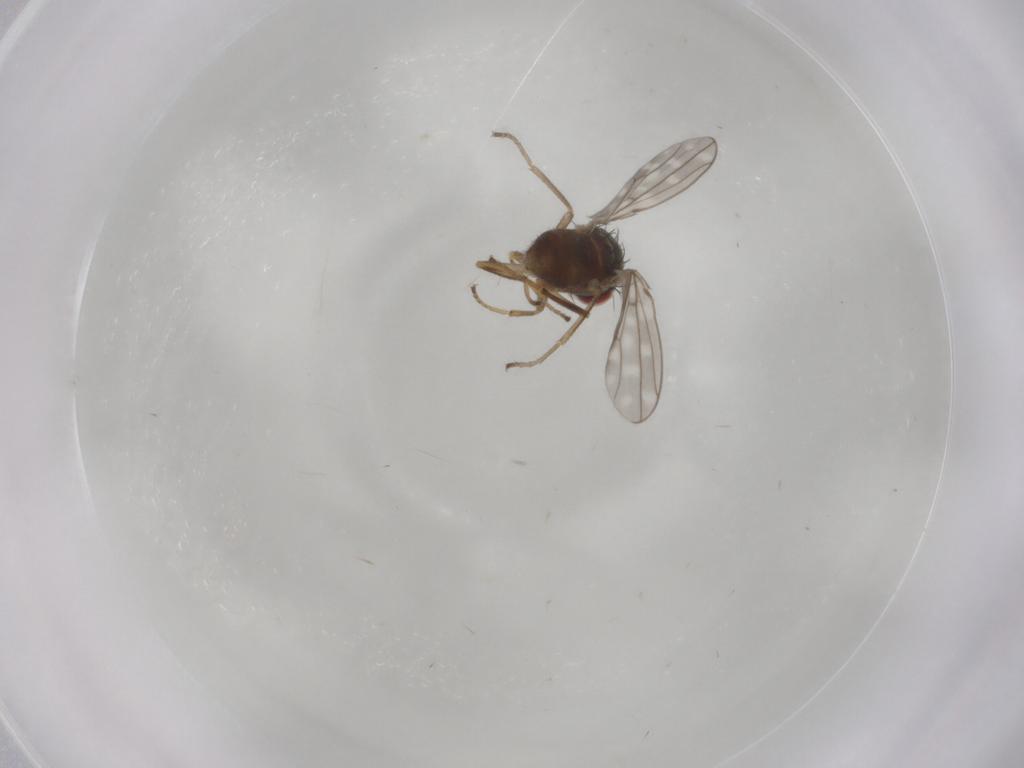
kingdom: Animalia
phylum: Arthropoda
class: Insecta
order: Diptera
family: Ephydridae
